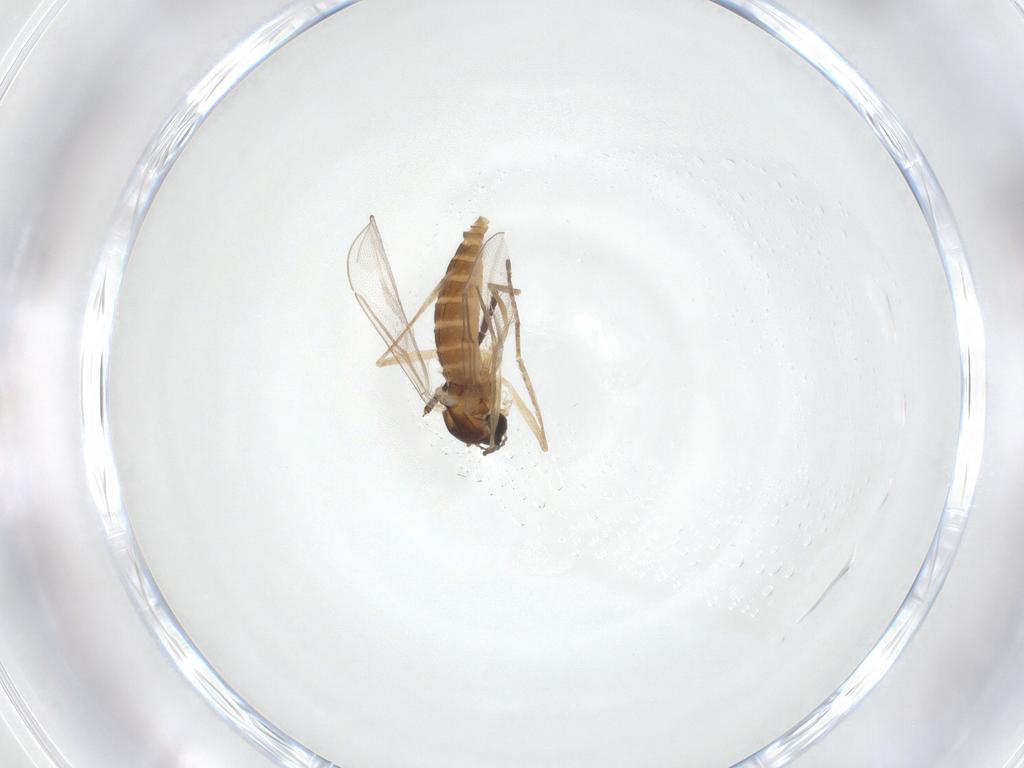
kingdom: Animalia
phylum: Arthropoda
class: Insecta
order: Diptera
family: Cecidomyiidae
